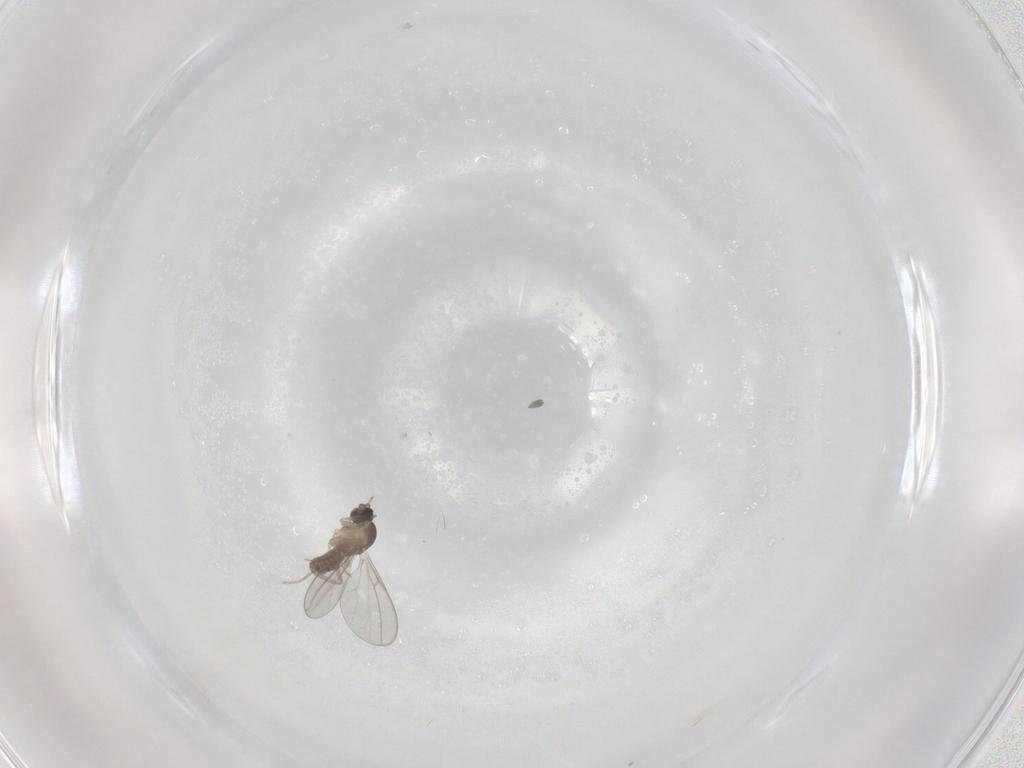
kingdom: Animalia
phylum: Arthropoda
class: Insecta
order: Diptera
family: Cecidomyiidae
